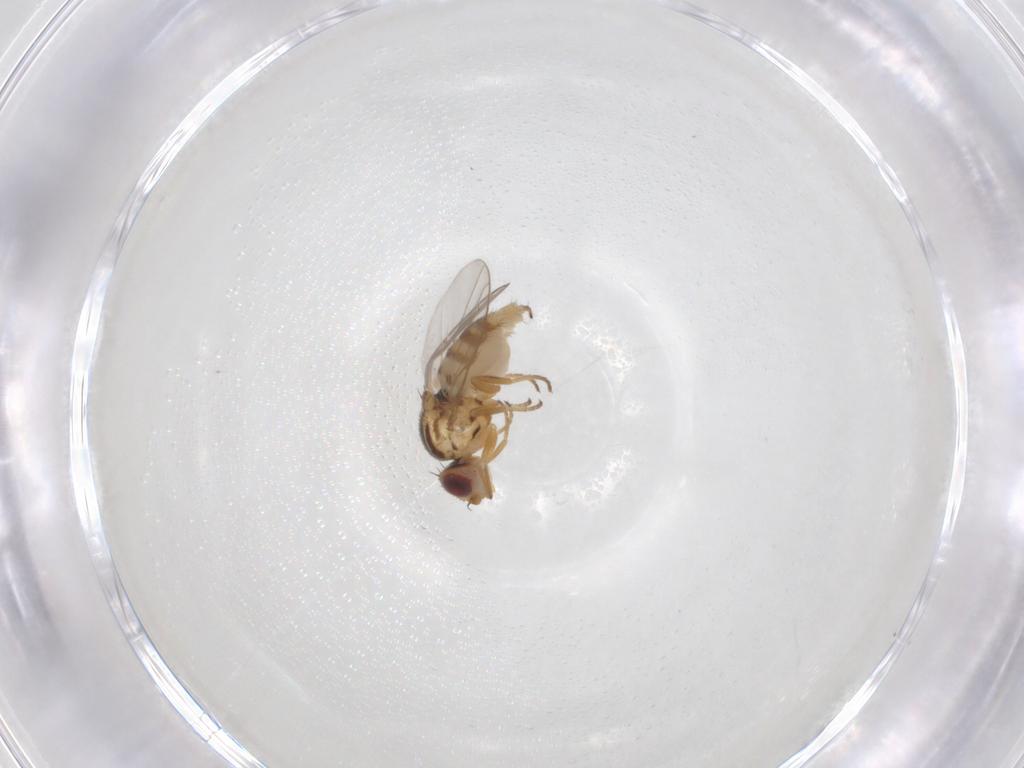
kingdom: Animalia
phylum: Arthropoda
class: Insecta
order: Diptera
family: Chloropidae
